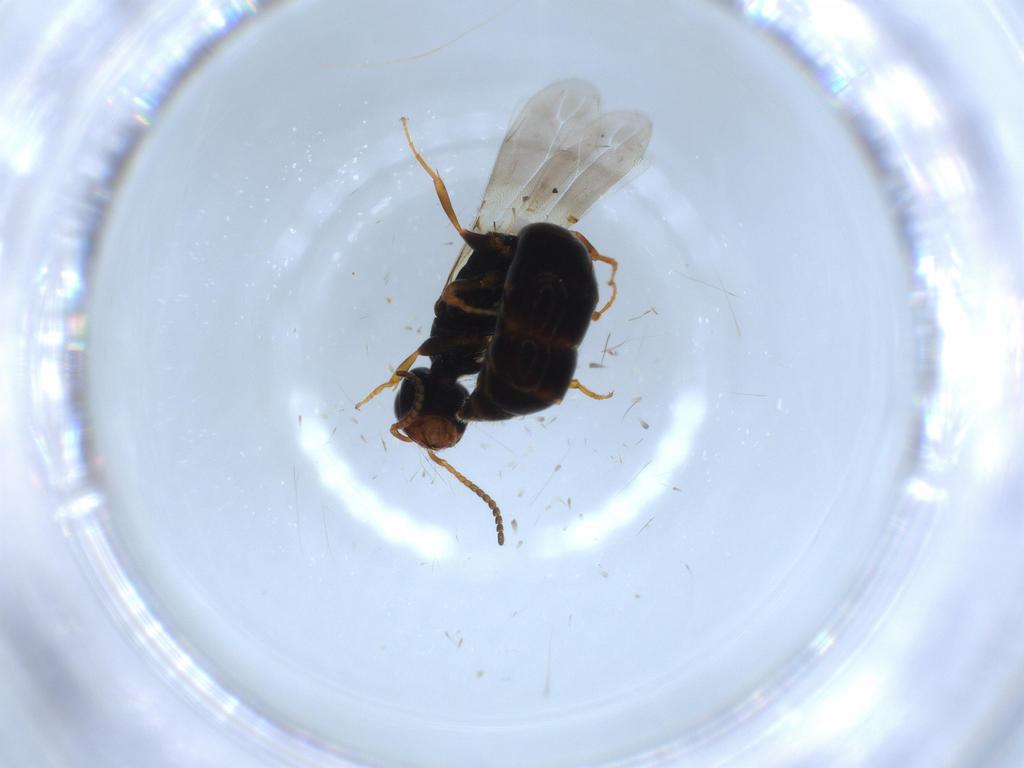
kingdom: Animalia
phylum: Arthropoda
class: Insecta
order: Hymenoptera
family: Bethylidae
